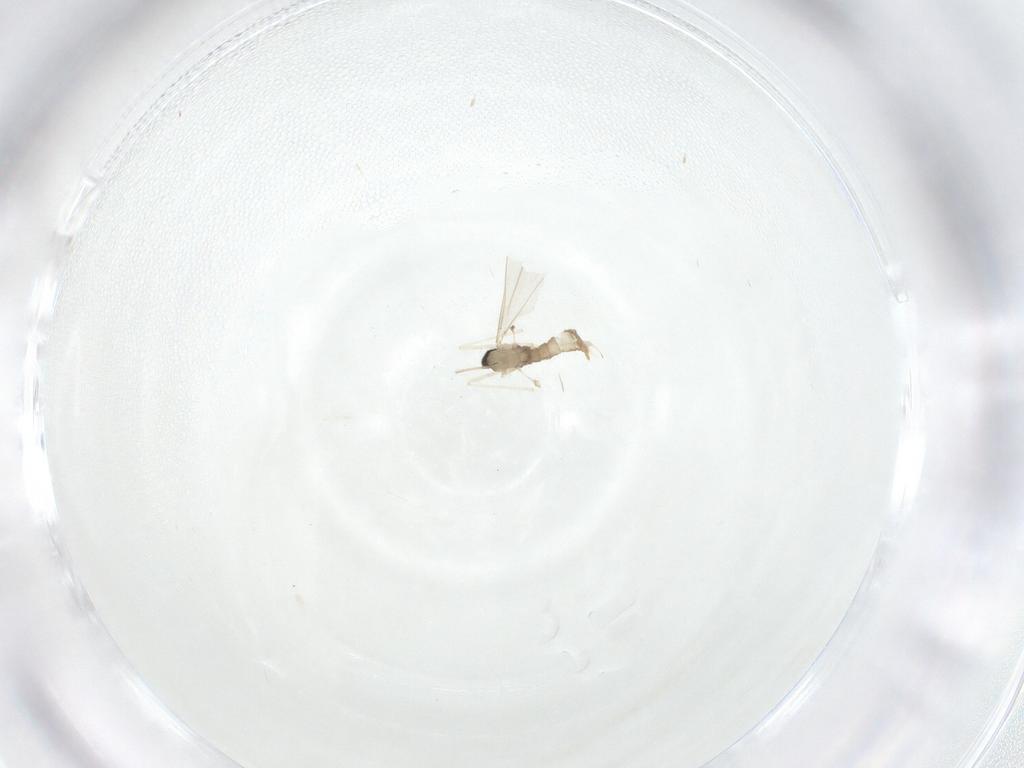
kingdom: Animalia
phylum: Arthropoda
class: Insecta
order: Diptera
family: Cecidomyiidae
